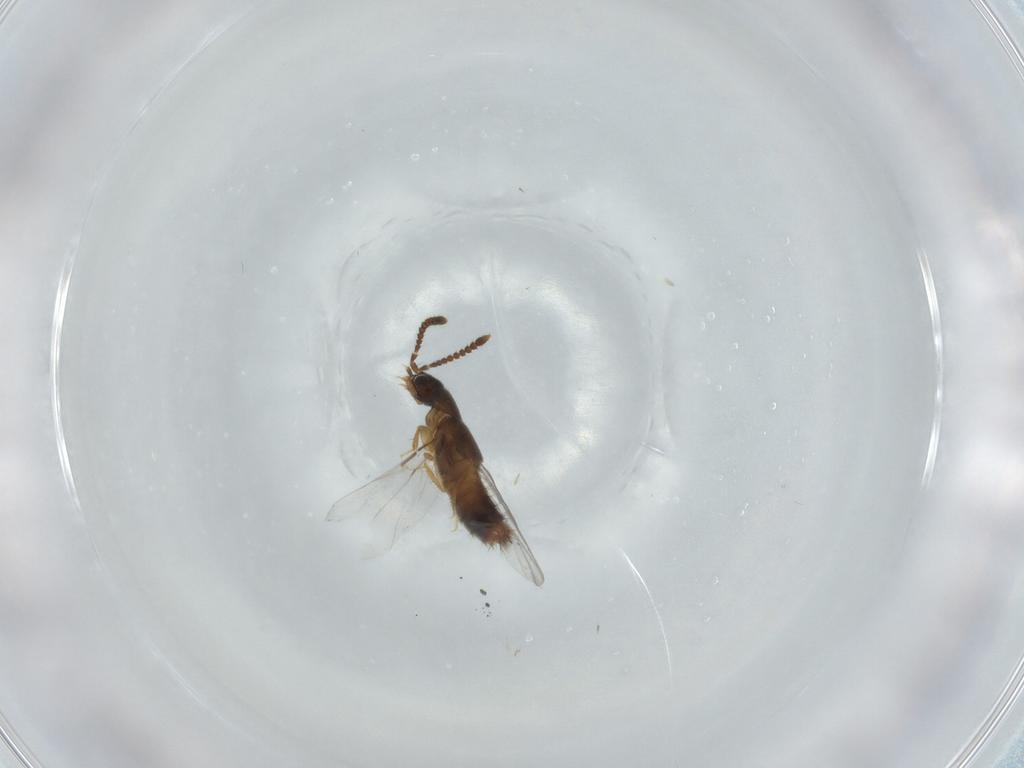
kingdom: Animalia
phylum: Arthropoda
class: Insecta
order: Coleoptera
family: Staphylinidae
